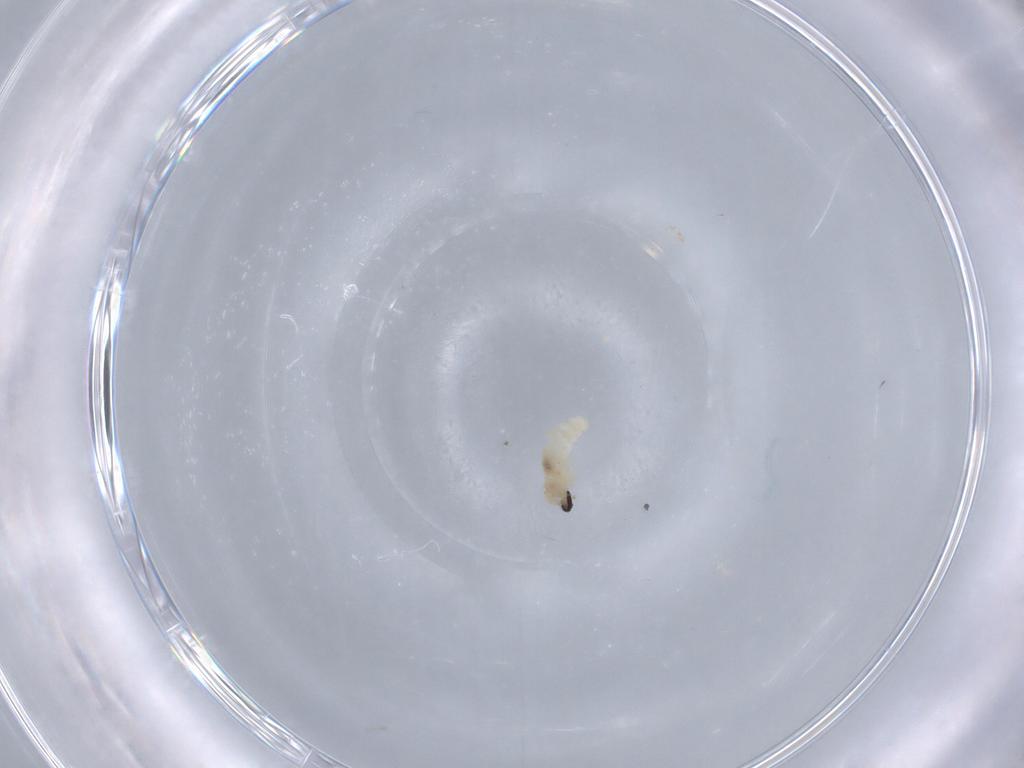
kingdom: Animalia
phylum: Arthropoda
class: Insecta
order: Diptera
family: Cecidomyiidae
